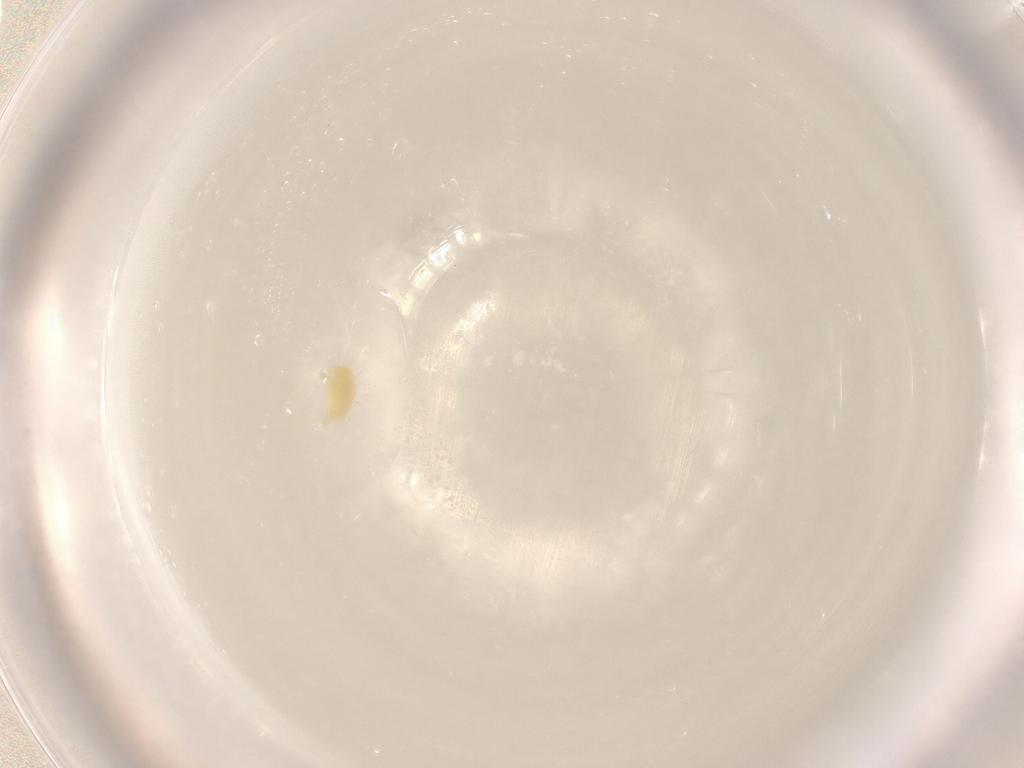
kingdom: Animalia
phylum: Arthropoda
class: Arachnida
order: Trombidiformes
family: Tetranychidae
